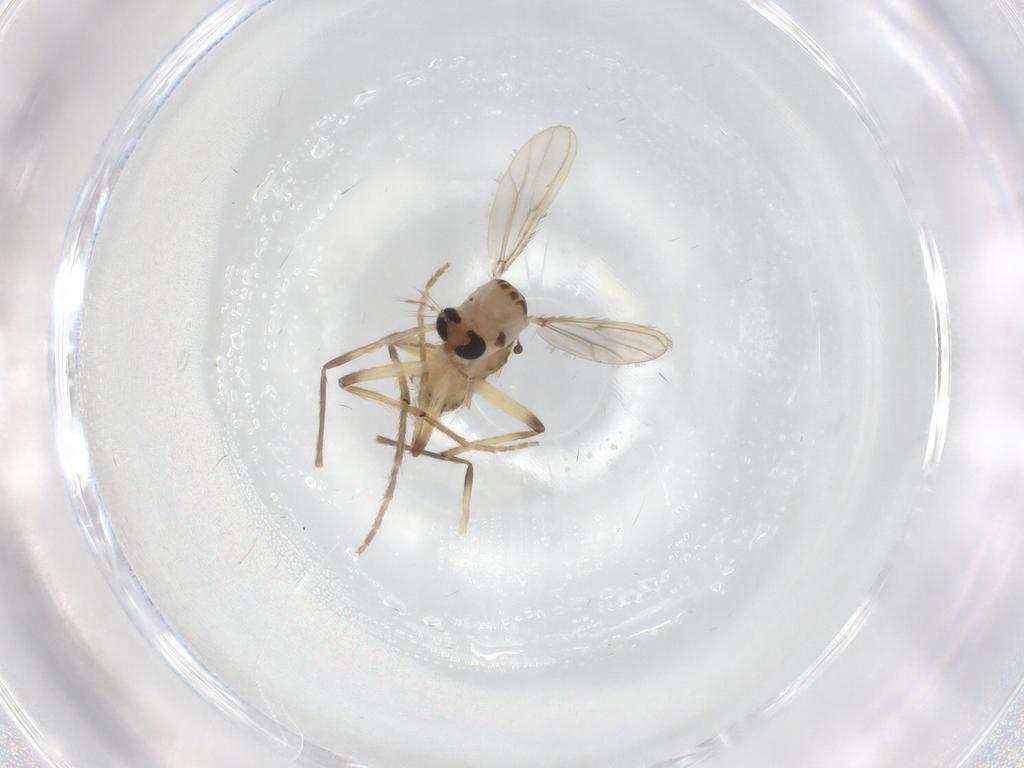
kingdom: Animalia
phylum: Arthropoda
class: Insecta
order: Diptera
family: Chironomidae
